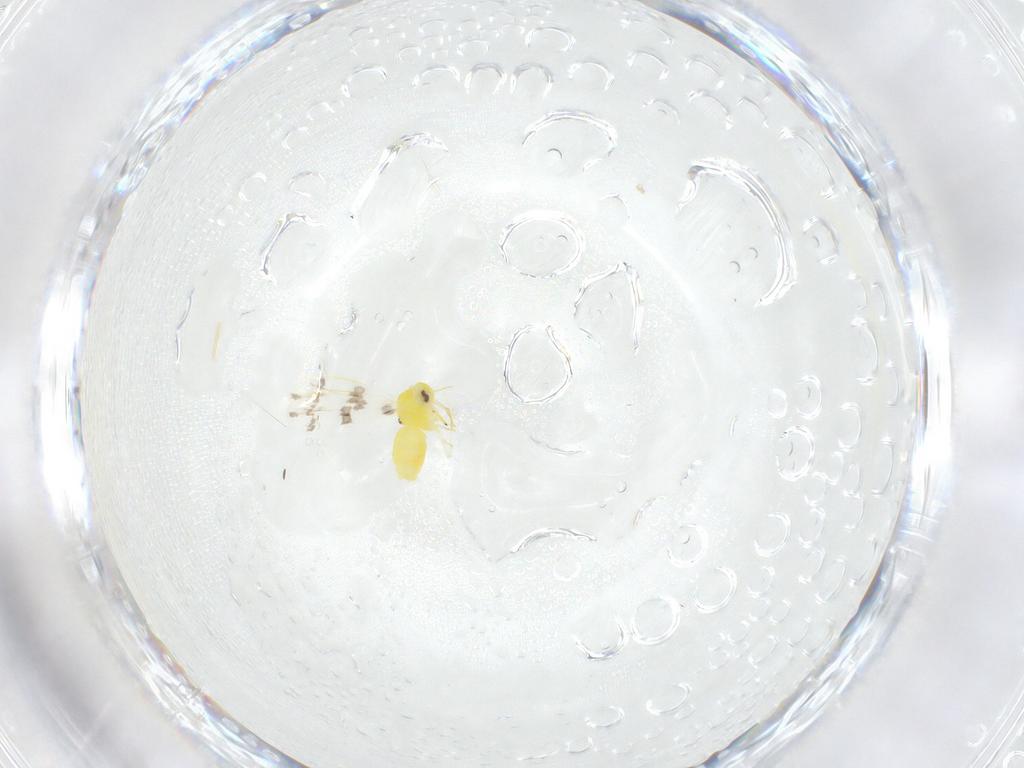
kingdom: Animalia
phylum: Arthropoda
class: Insecta
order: Hemiptera
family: Aleyrodidae
